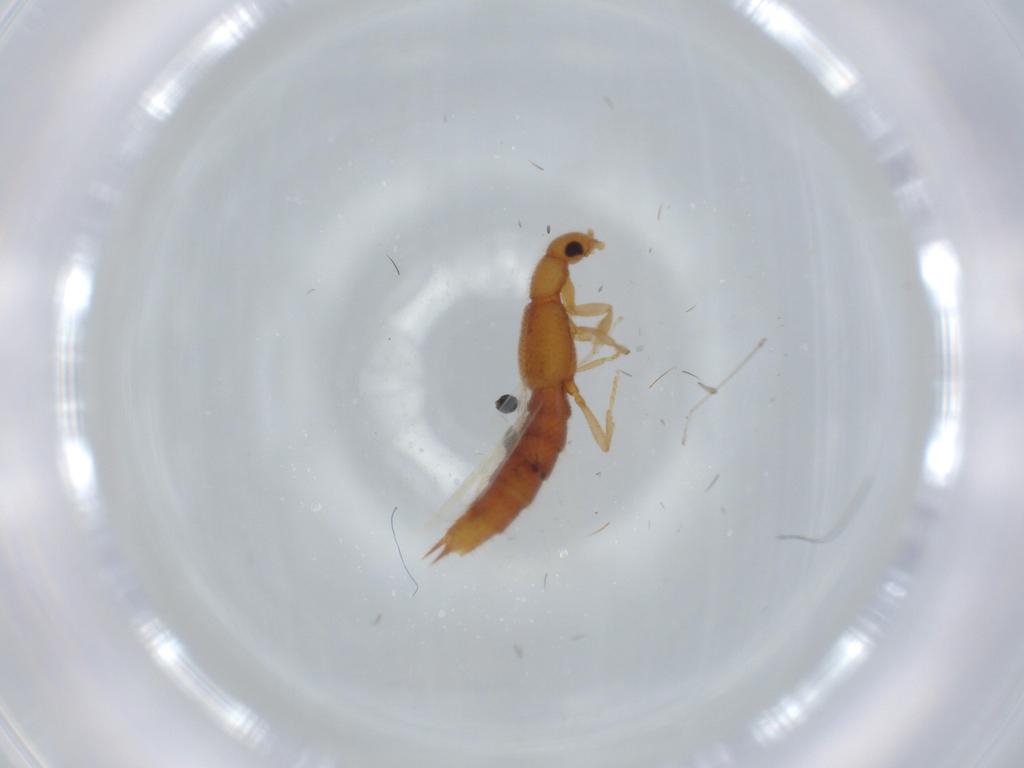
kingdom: Animalia
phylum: Arthropoda
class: Insecta
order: Coleoptera
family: Staphylinidae
